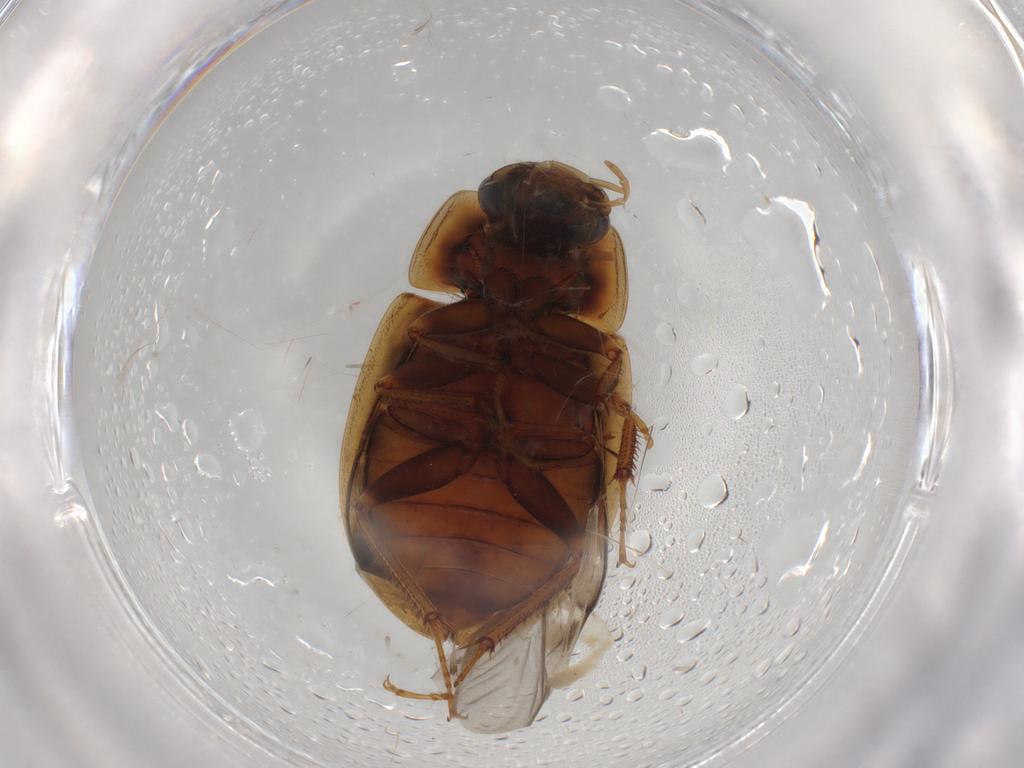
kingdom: Animalia
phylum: Arthropoda
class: Insecta
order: Coleoptera
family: Hydrophilidae
